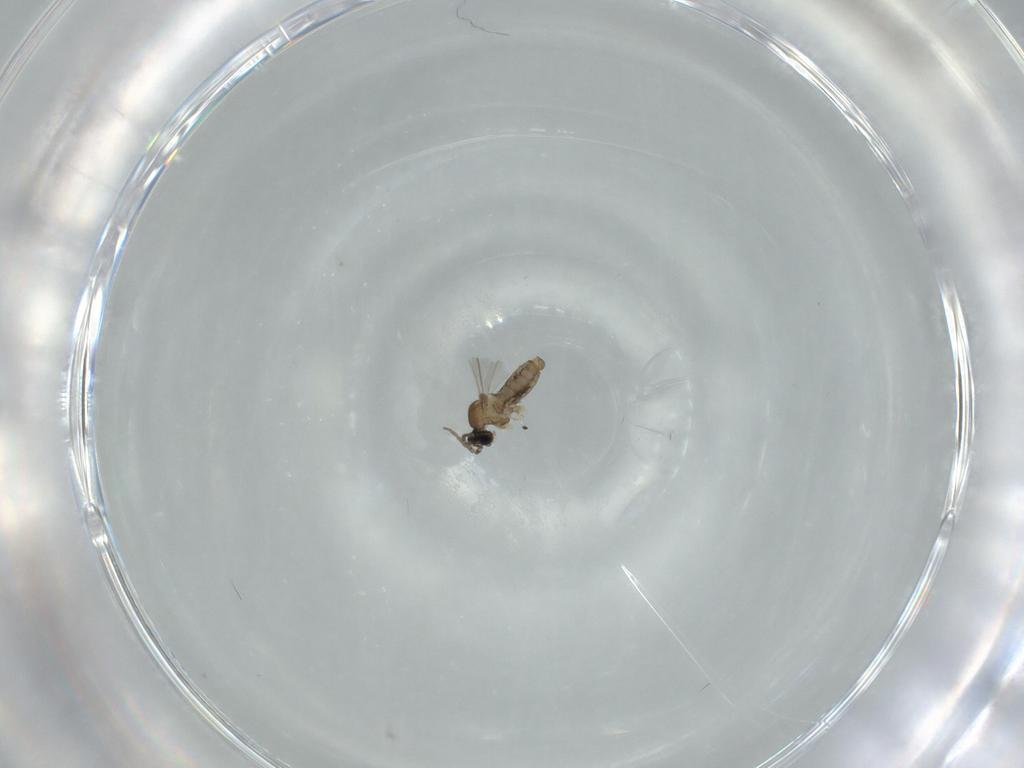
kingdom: Animalia
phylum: Arthropoda
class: Insecta
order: Diptera
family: Cecidomyiidae
